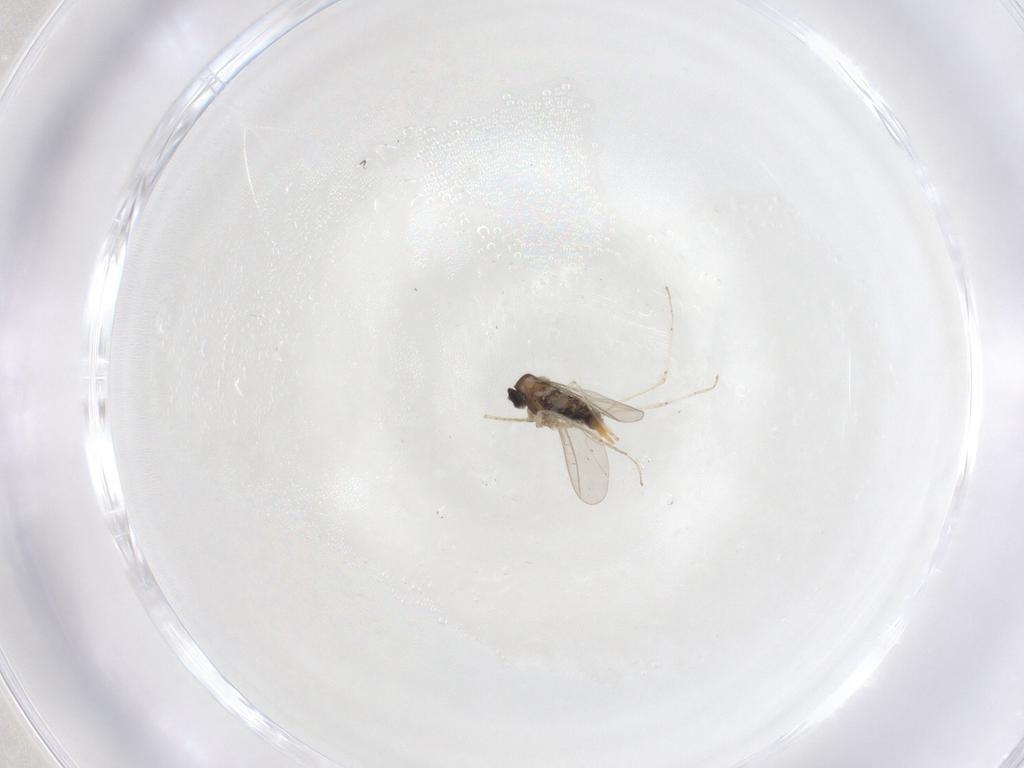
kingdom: Animalia
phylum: Arthropoda
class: Insecta
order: Diptera
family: Cecidomyiidae
